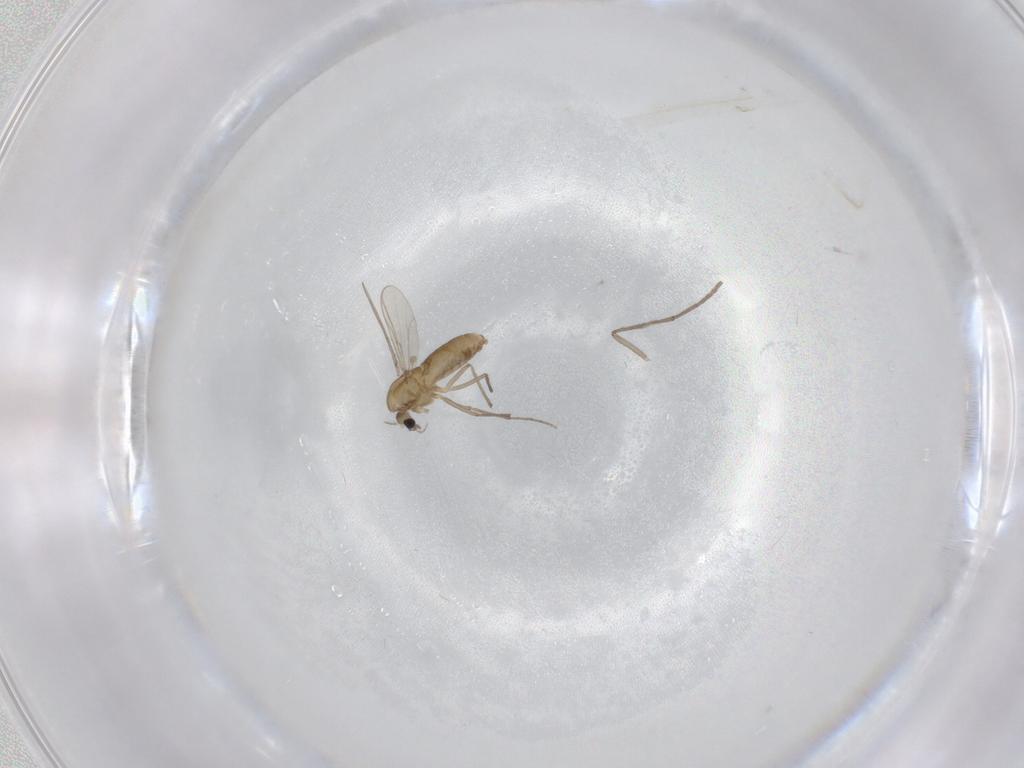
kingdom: Animalia
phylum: Arthropoda
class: Insecta
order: Diptera
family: Psychodidae
